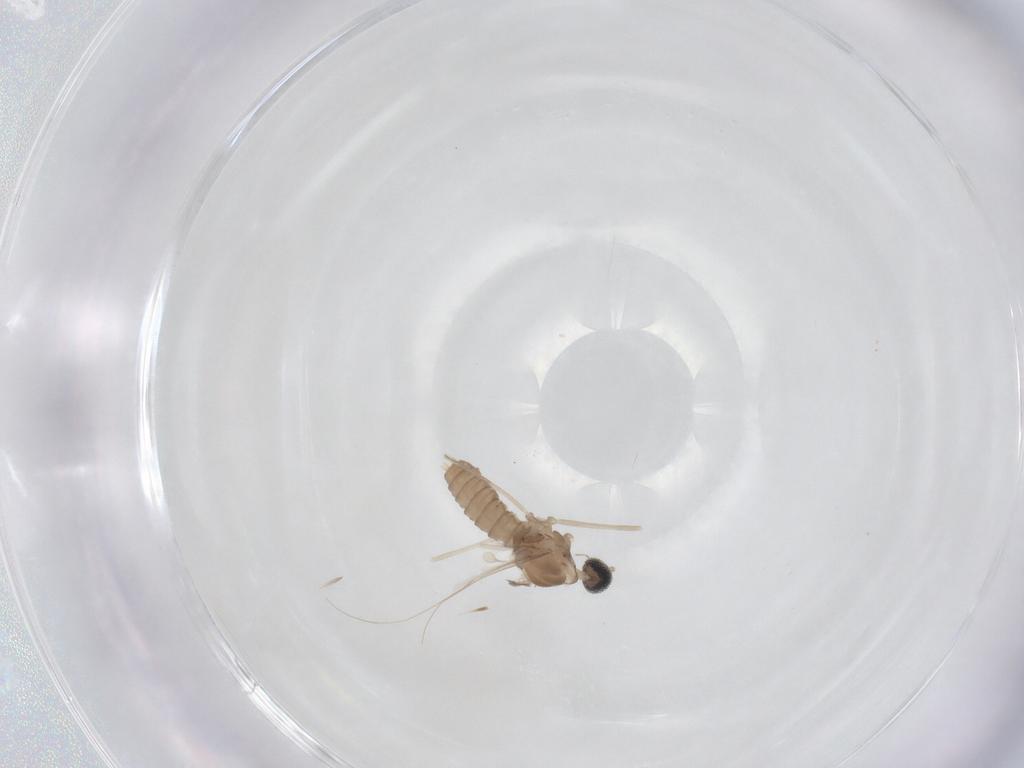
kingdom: Animalia
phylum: Arthropoda
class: Insecta
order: Diptera
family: Cecidomyiidae
